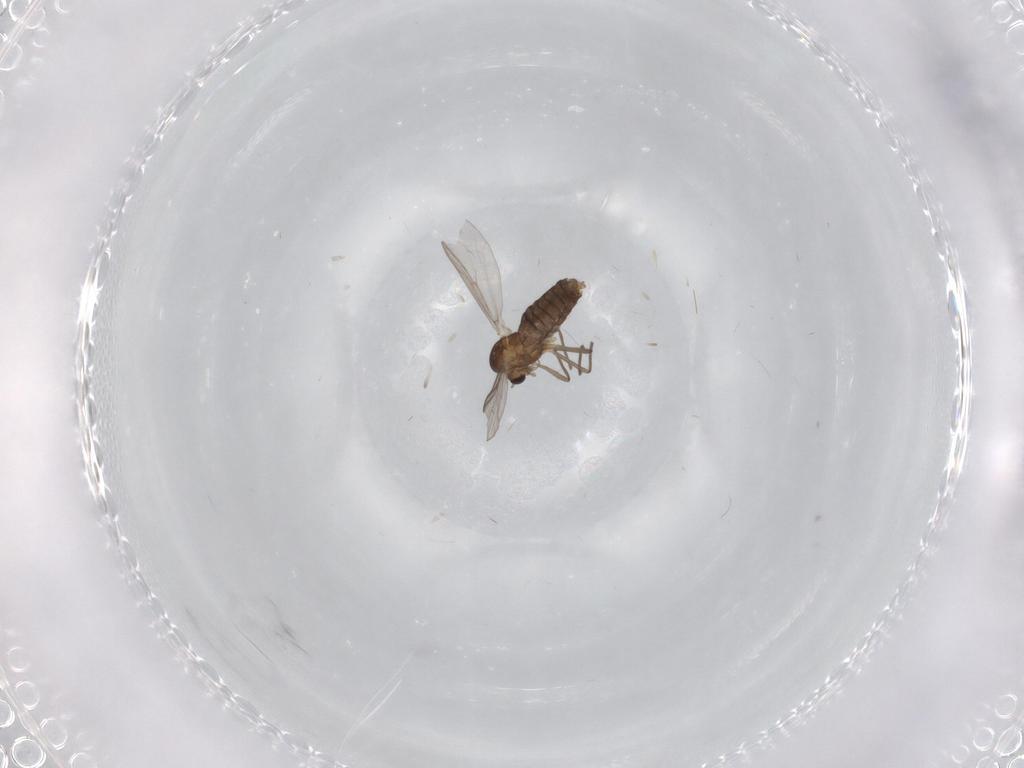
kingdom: Animalia
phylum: Arthropoda
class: Insecta
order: Diptera
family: Chironomidae
